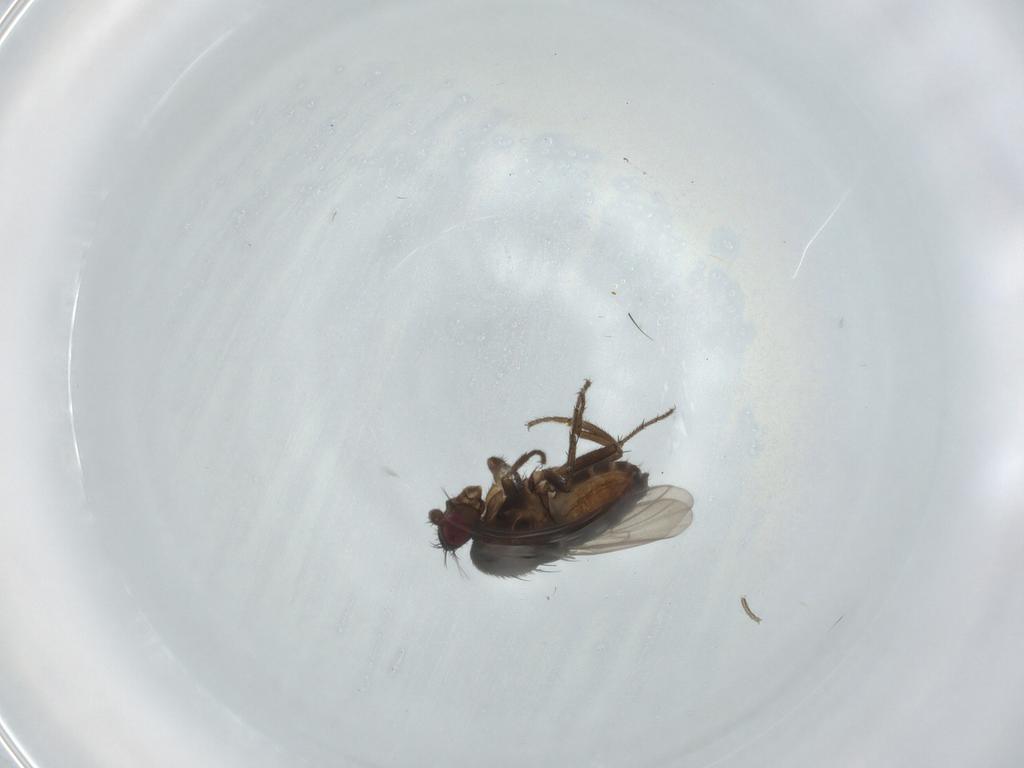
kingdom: Animalia
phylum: Arthropoda
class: Insecta
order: Diptera
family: Sphaeroceridae
